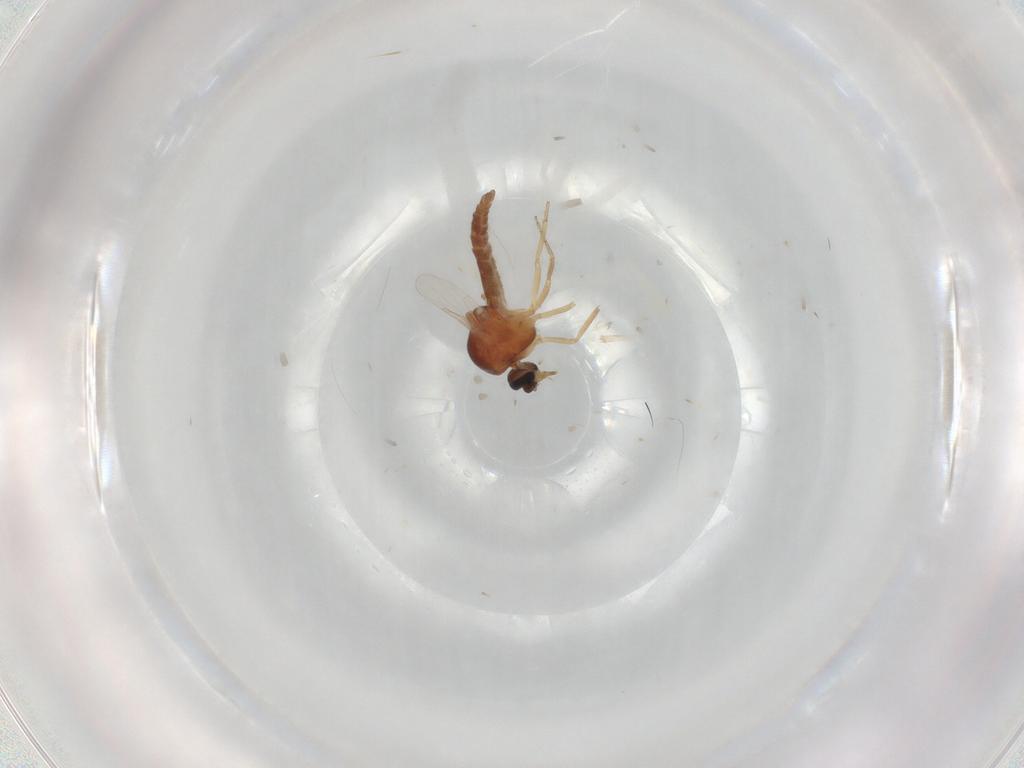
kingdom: Animalia
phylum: Arthropoda
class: Insecta
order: Diptera
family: Ceratopogonidae
